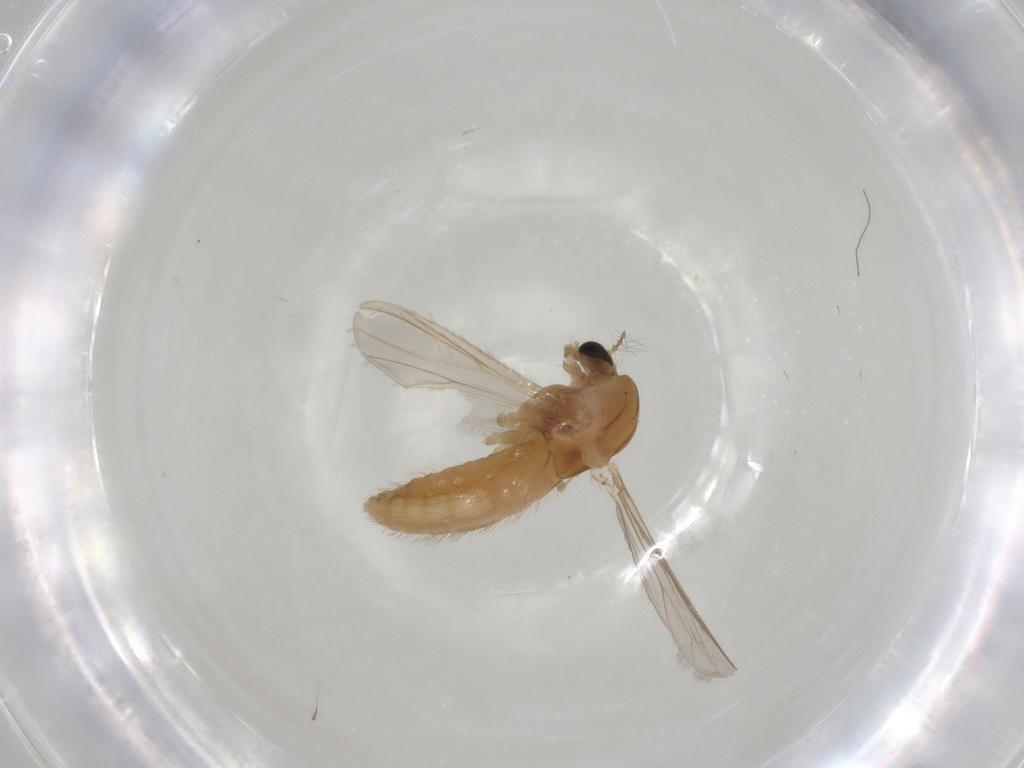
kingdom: Animalia
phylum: Arthropoda
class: Insecta
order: Diptera
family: Chironomidae
